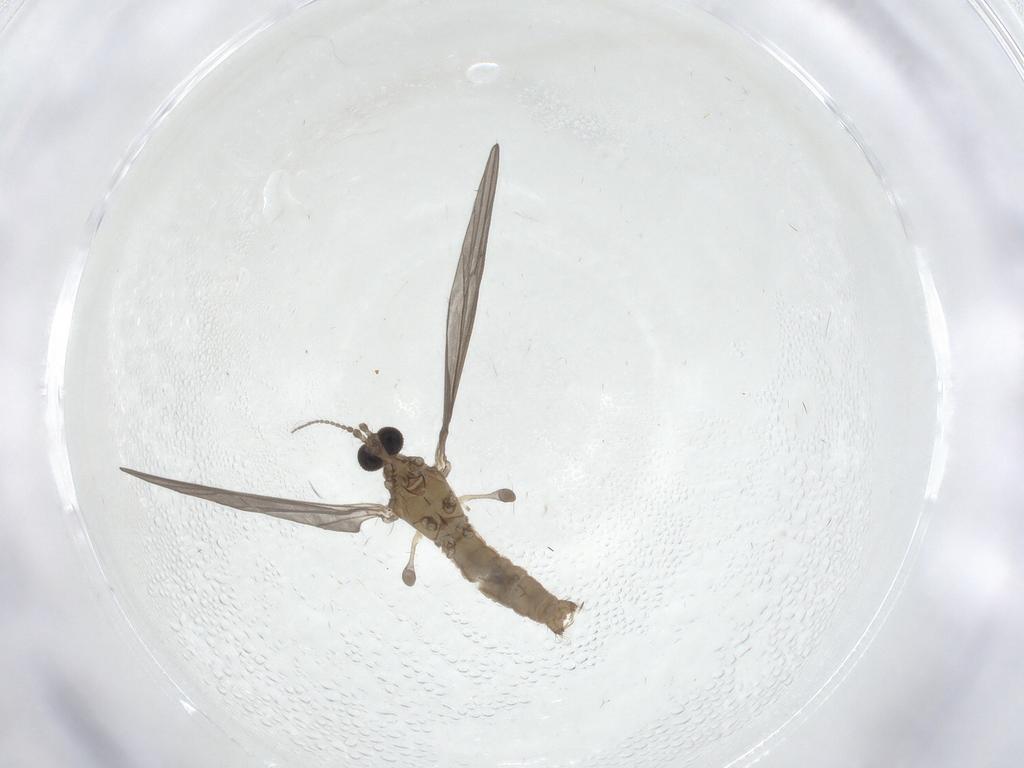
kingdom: Animalia
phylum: Arthropoda
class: Insecta
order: Diptera
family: Limoniidae
